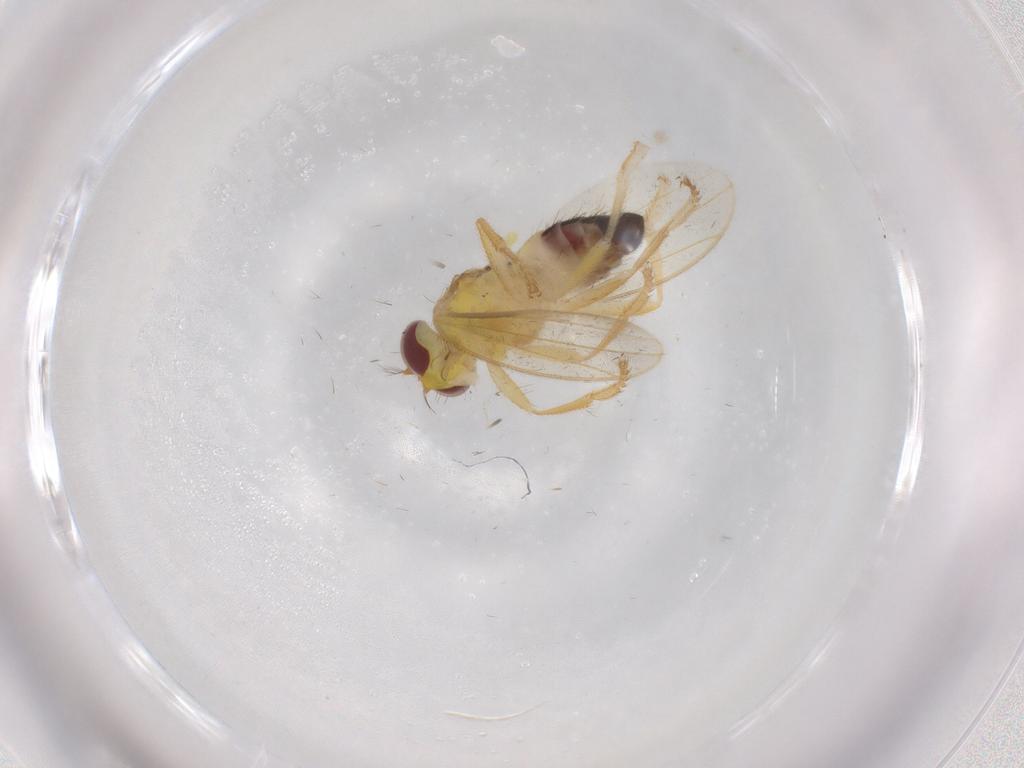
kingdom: Animalia
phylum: Arthropoda
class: Insecta
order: Diptera
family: Periscelididae
